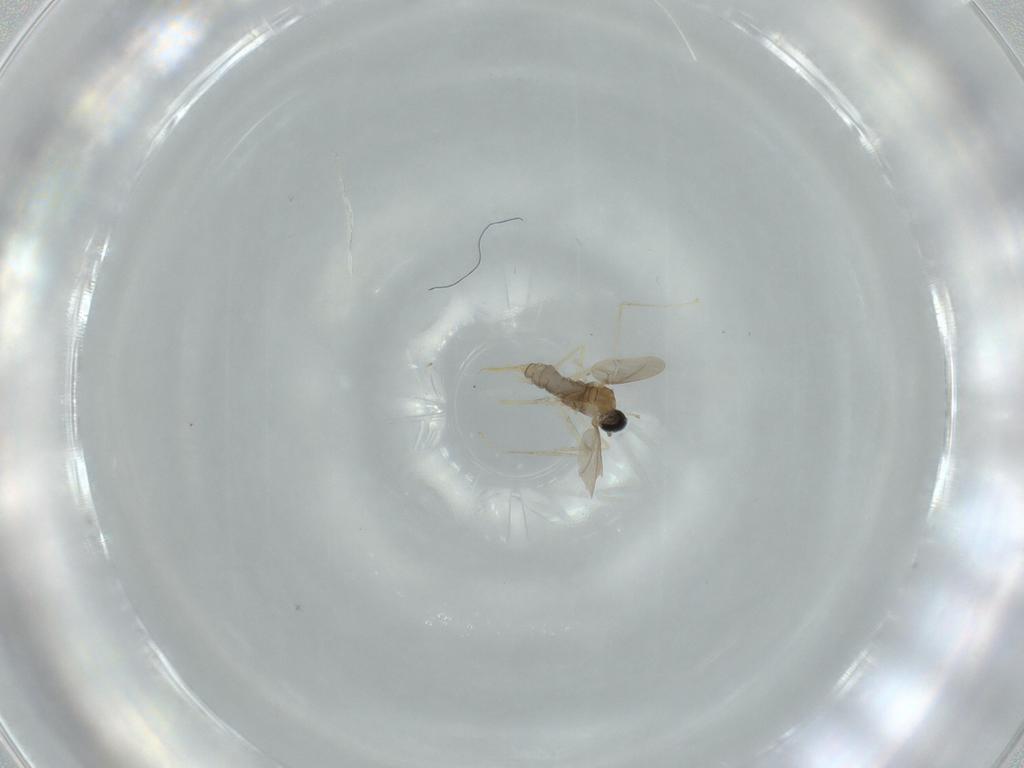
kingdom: Animalia
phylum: Arthropoda
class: Insecta
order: Diptera
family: Cecidomyiidae
